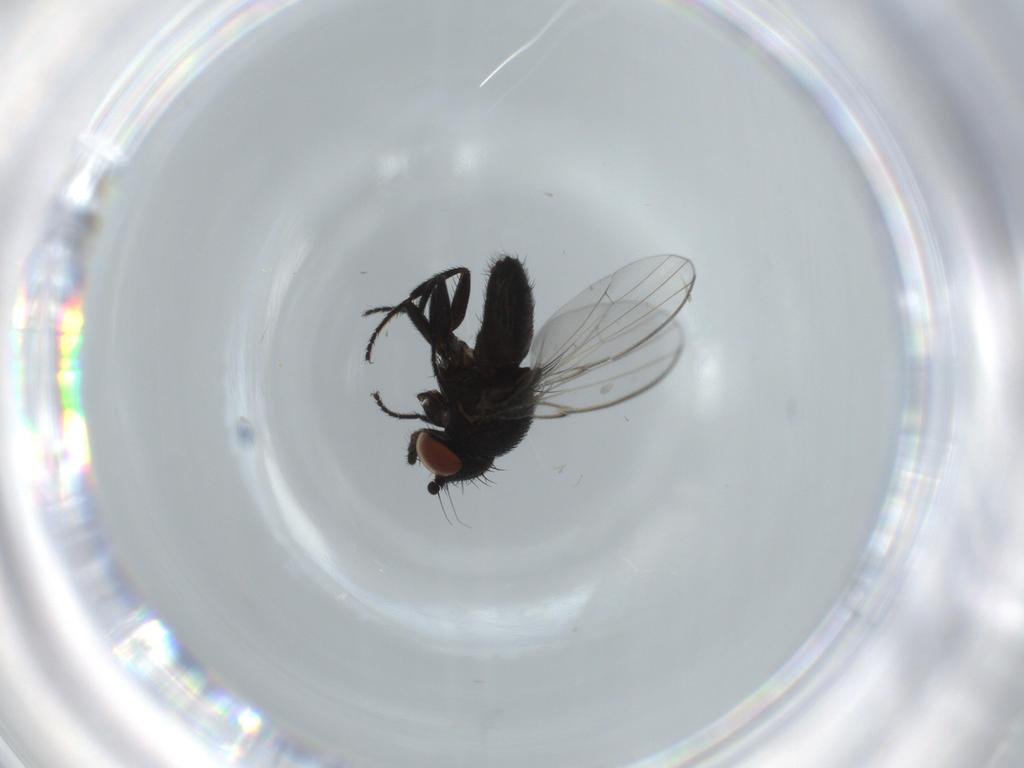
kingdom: Animalia
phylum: Arthropoda
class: Insecta
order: Diptera
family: Milichiidae
